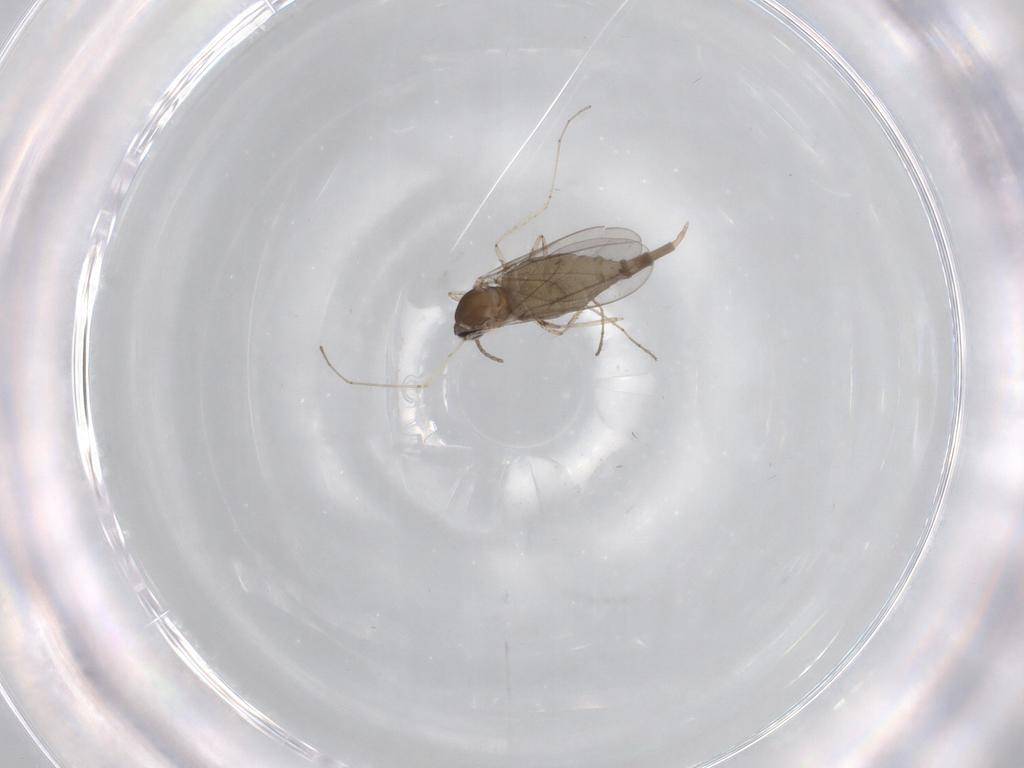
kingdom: Animalia
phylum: Arthropoda
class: Insecta
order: Diptera
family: Cecidomyiidae
